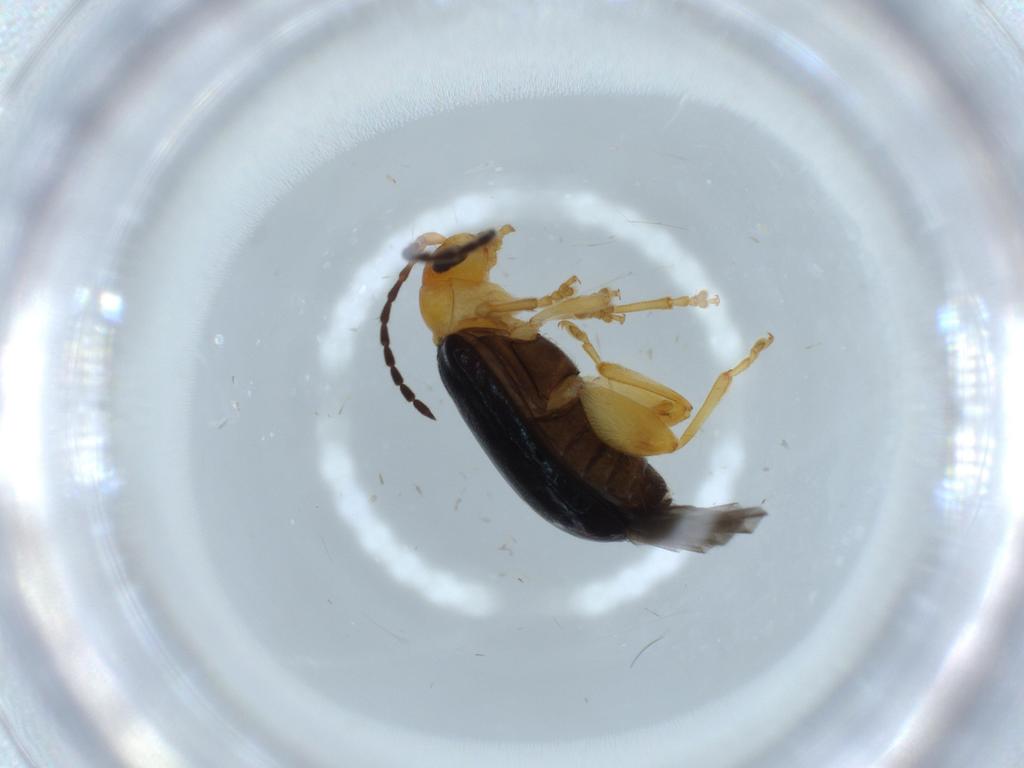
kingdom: Animalia
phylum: Arthropoda
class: Insecta
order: Coleoptera
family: Chrysomelidae
